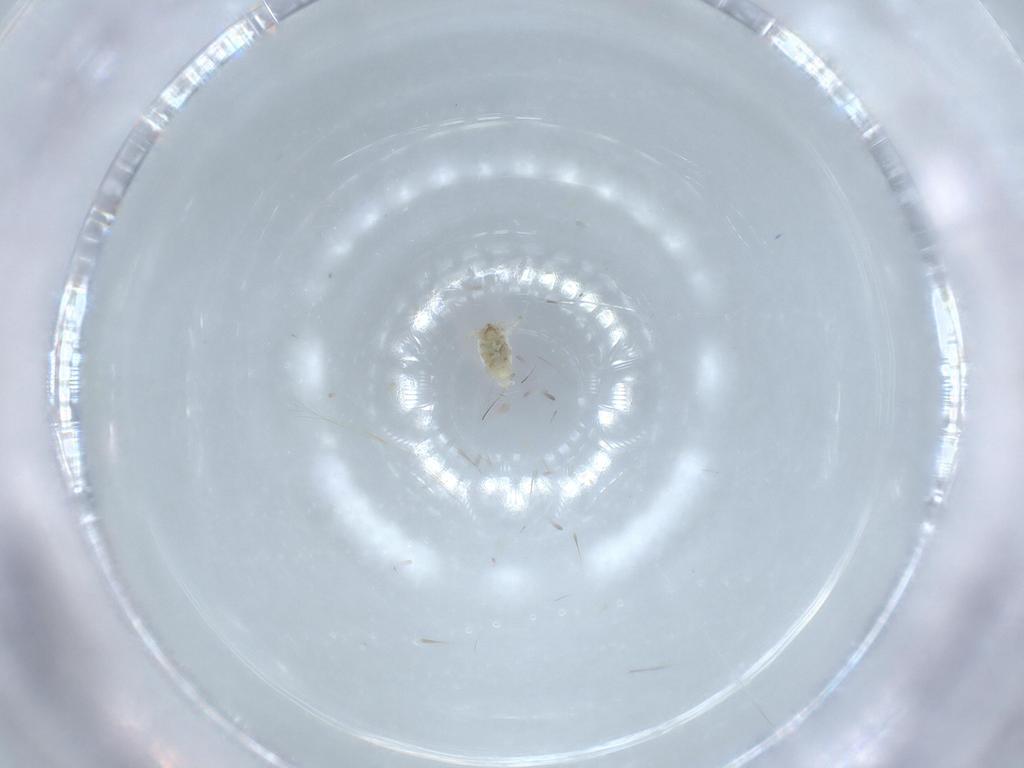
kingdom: Animalia
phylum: Arthropoda
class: Insecta
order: Neuroptera
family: Coniopterygidae
